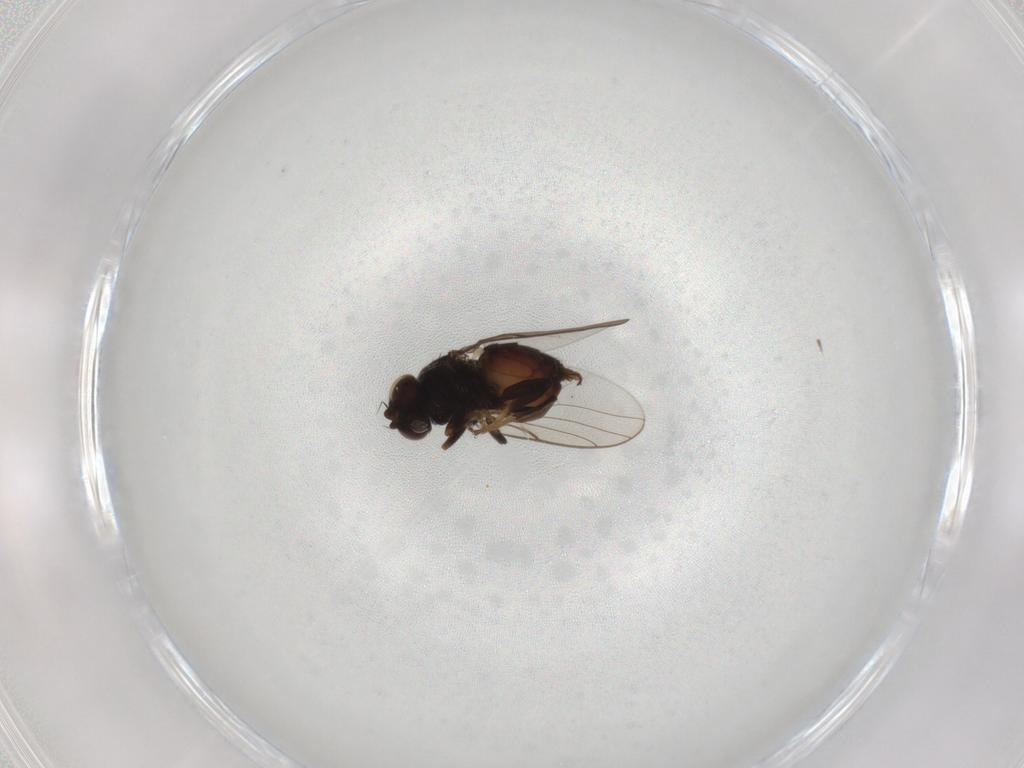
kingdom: Animalia
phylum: Arthropoda
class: Insecta
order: Diptera
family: Chloropidae
